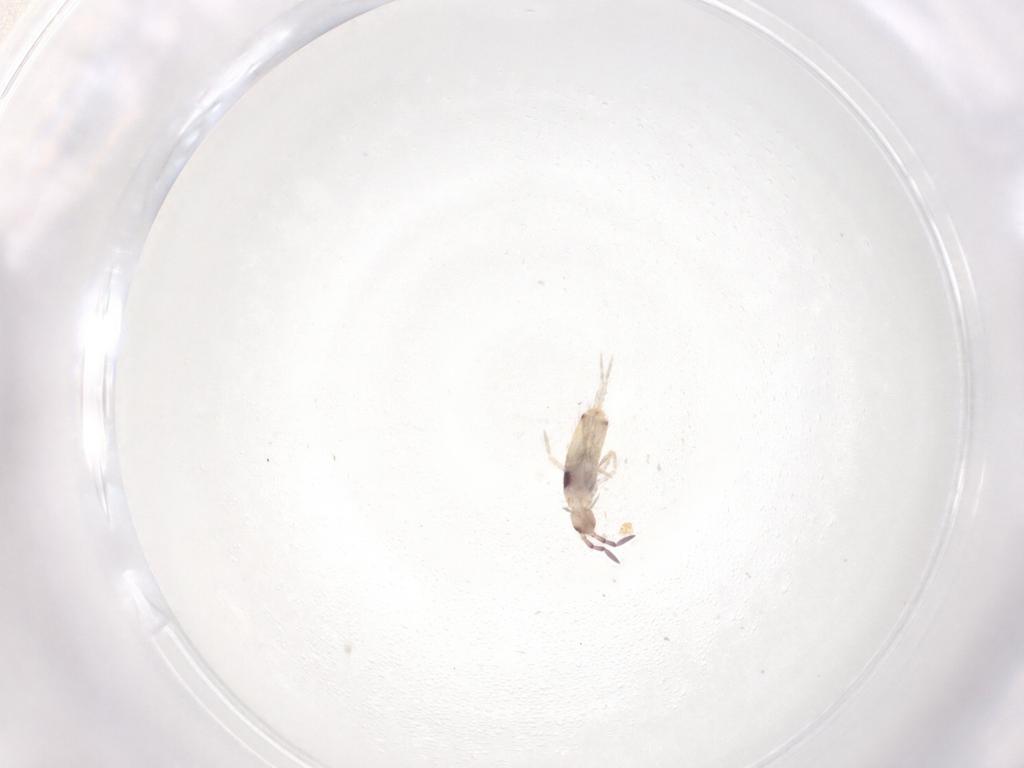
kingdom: Animalia
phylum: Arthropoda
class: Collembola
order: Entomobryomorpha
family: Entomobryidae
